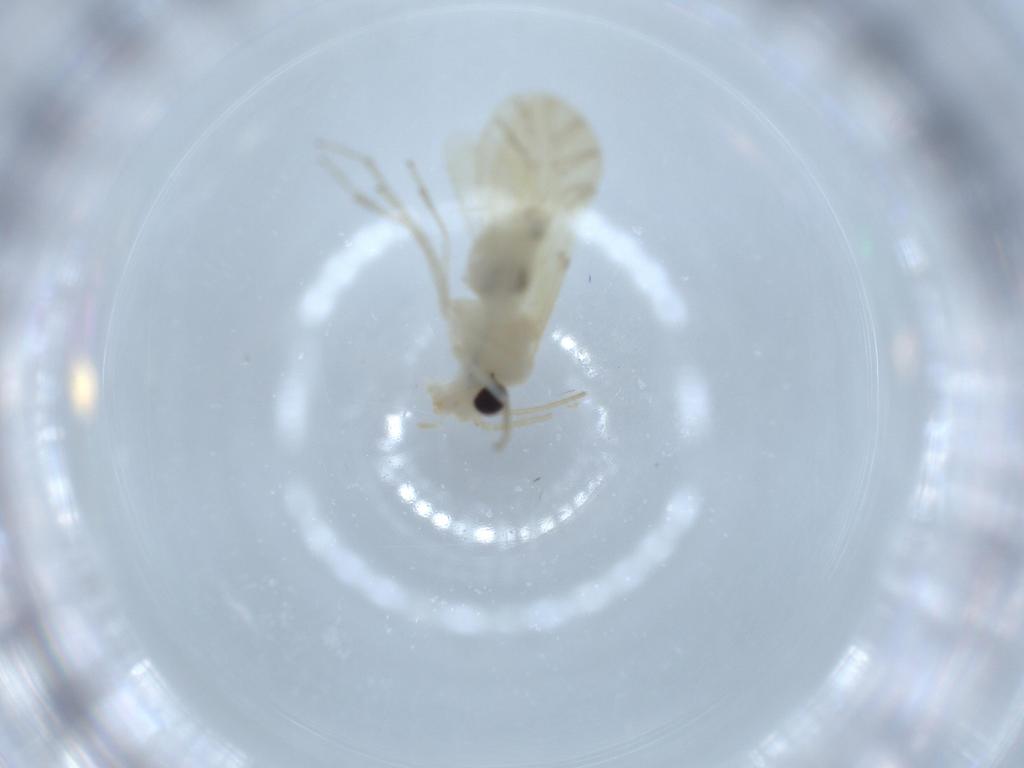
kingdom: Animalia
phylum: Arthropoda
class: Insecta
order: Psocodea
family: Caeciliusidae
